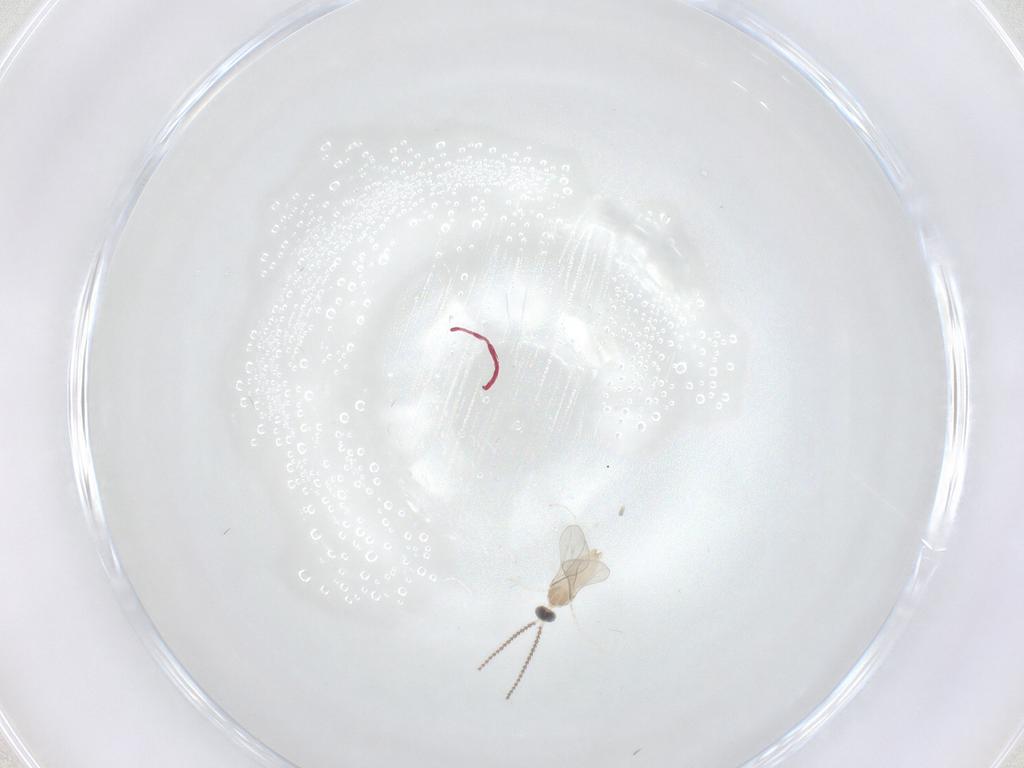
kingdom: Animalia
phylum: Arthropoda
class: Insecta
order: Diptera
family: Cecidomyiidae
